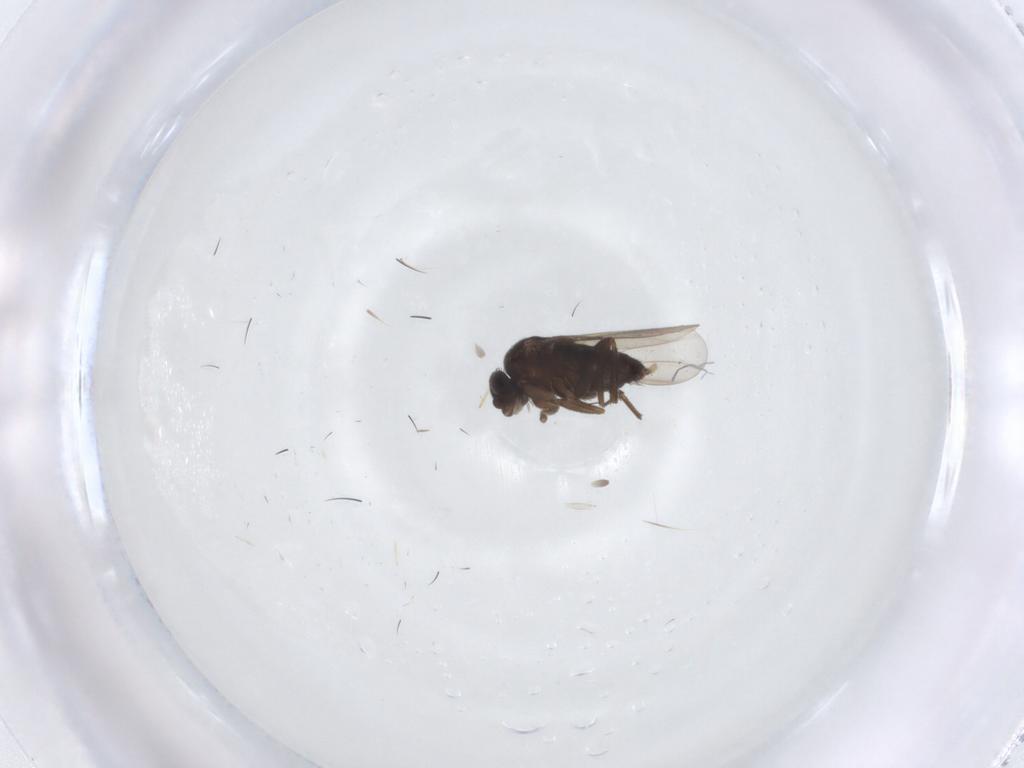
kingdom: Animalia
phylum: Arthropoda
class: Insecta
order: Diptera
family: Phoridae
